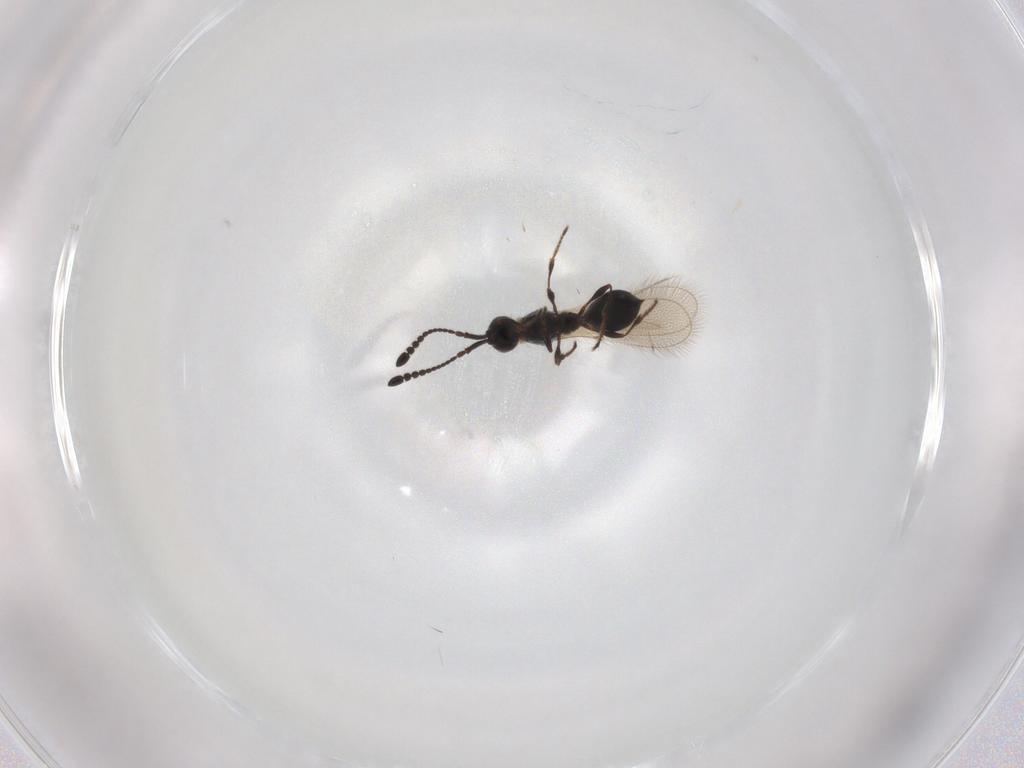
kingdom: Animalia
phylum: Arthropoda
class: Insecta
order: Hymenoptera
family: Diapriidae
